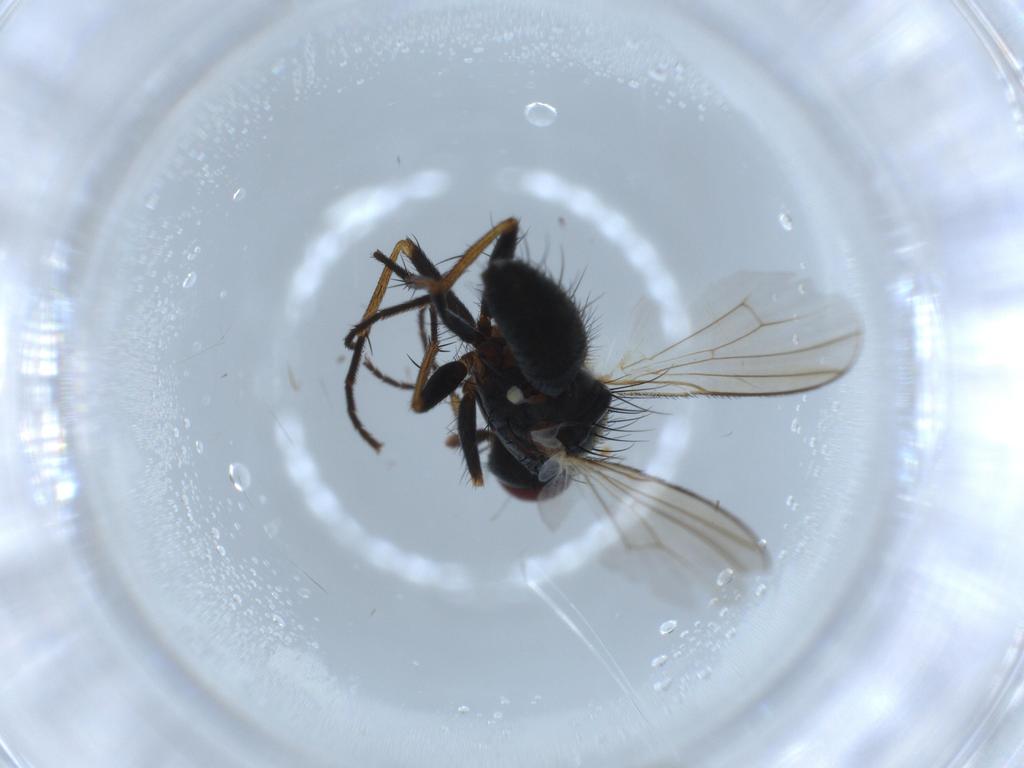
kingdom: Animalia
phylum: Arthropoda
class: Insecta
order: Diptera
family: Muscidae
